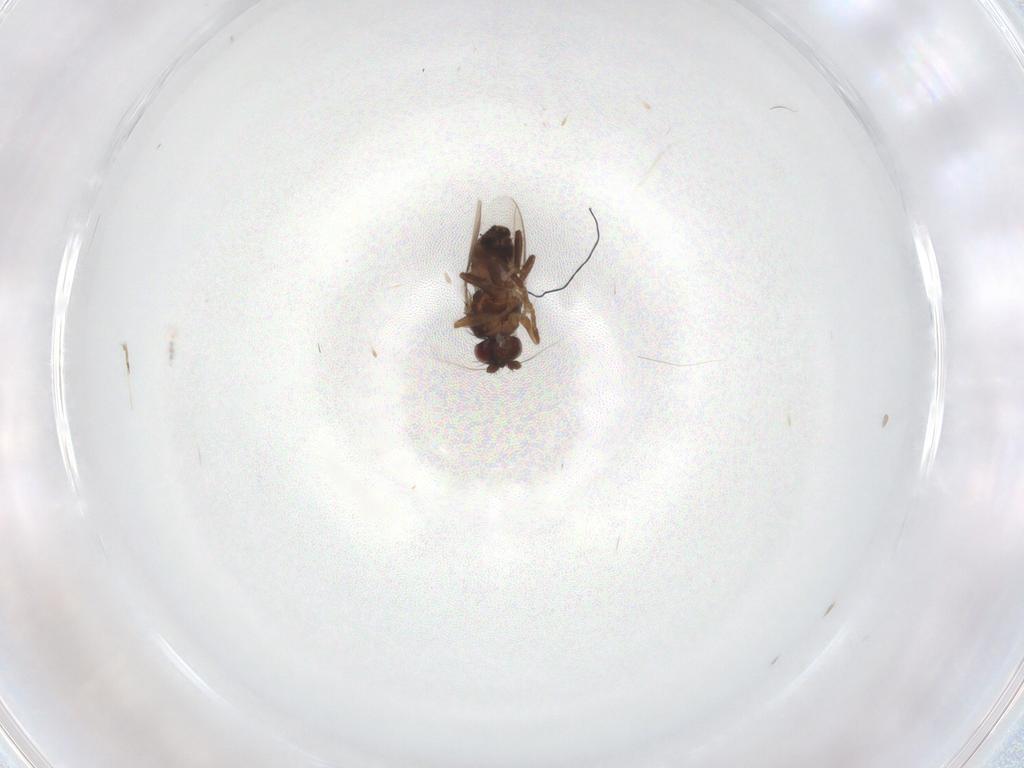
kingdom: Animalia
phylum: Arthropoda
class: Insecta
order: Diptera
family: Sphaeroceridae
